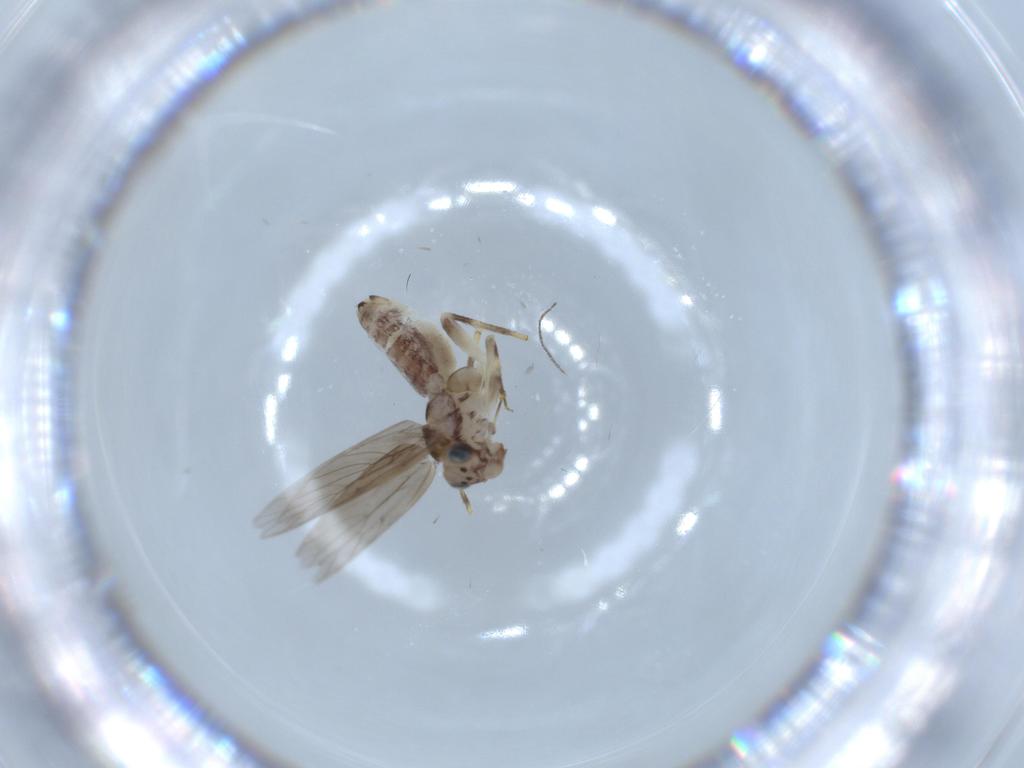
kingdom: Animalia
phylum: Arthropoda
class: Insecta
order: Psocodea
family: Lepidopsocidae
